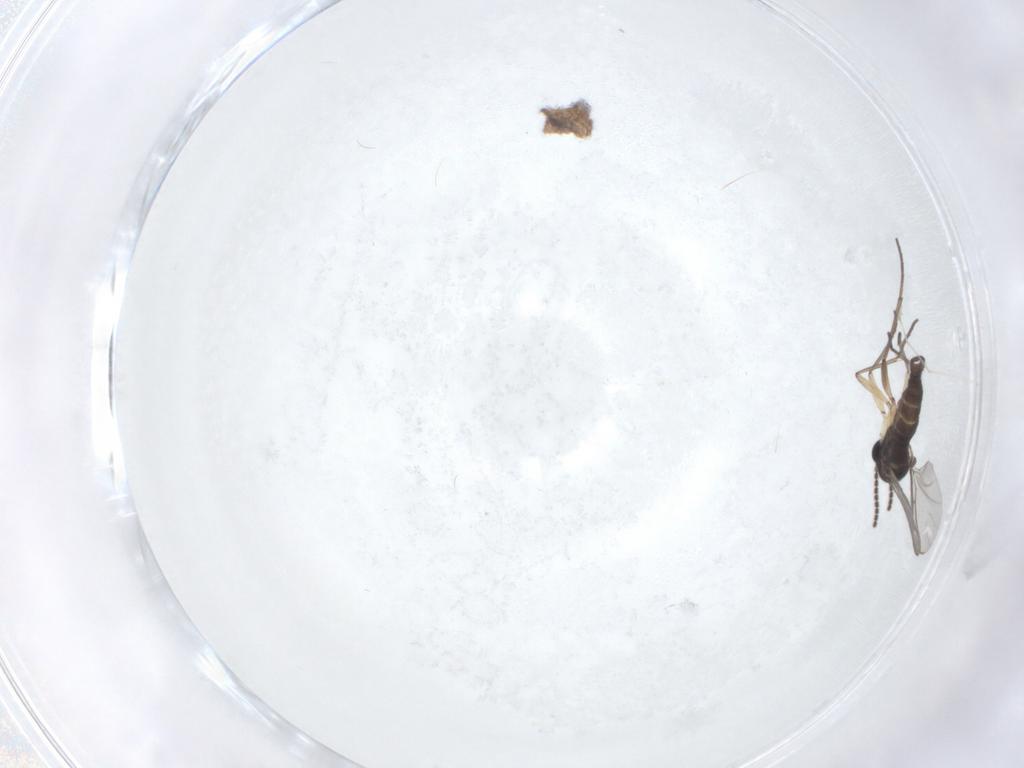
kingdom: Animalia
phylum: Arthropoda
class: Insecta
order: Diptera
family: Sciaridae
